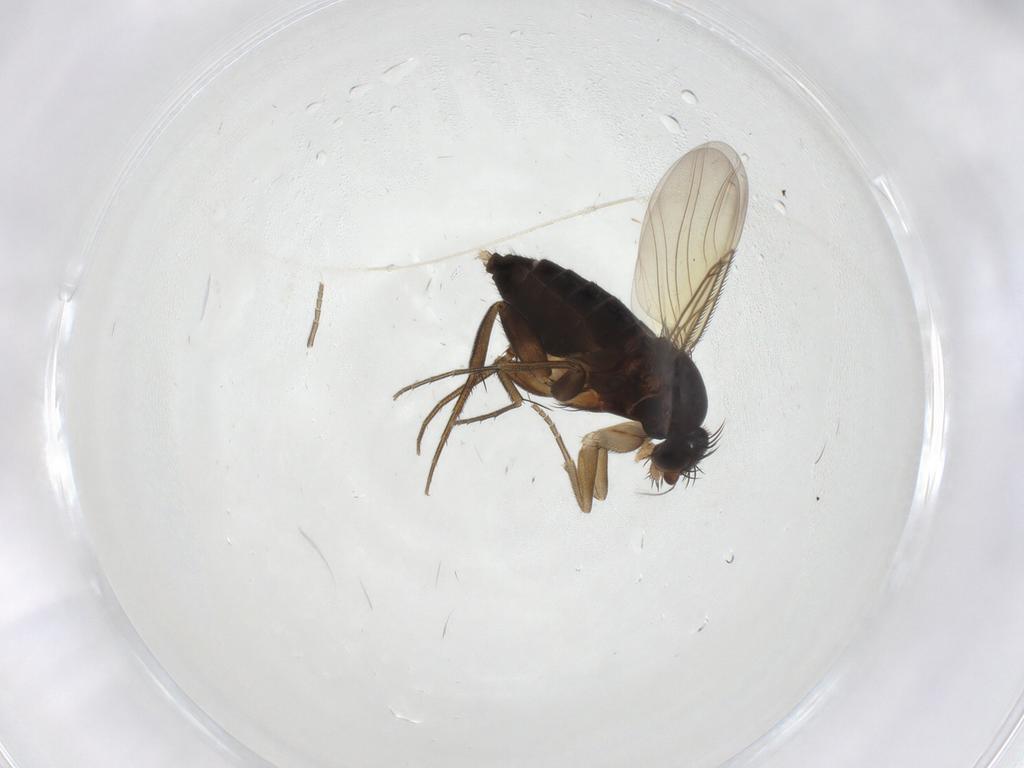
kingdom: Animalia
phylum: Arthropoda
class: Insecta
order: Diptera
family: Phoridae
